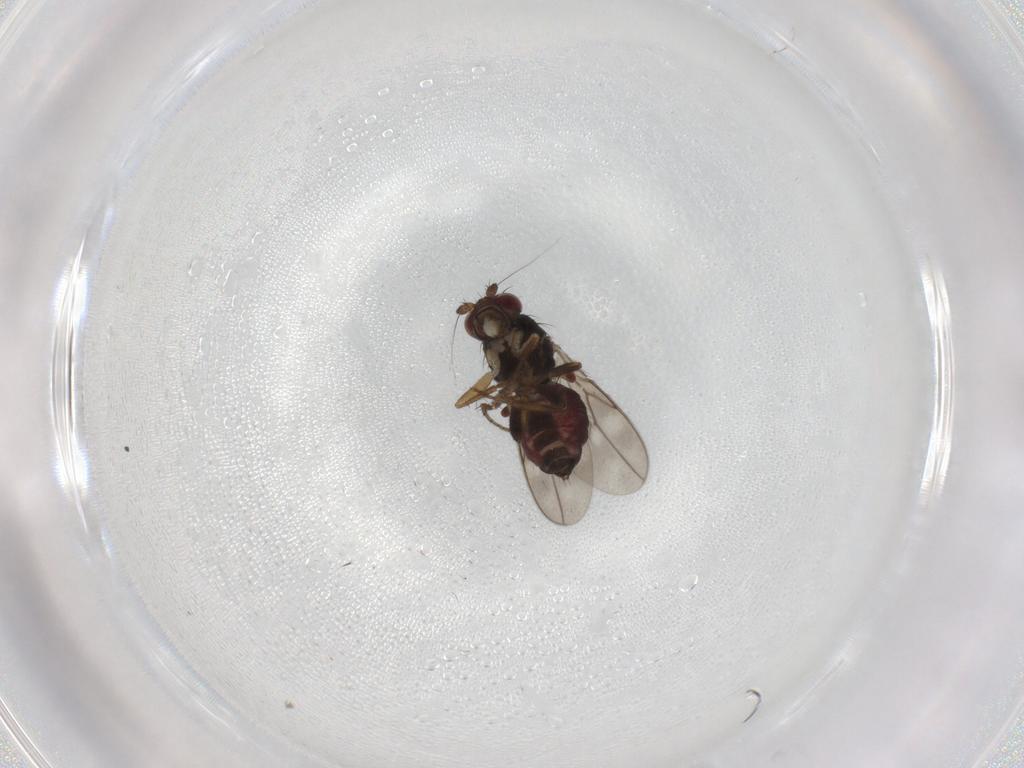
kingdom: Animalia
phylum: Arthropoda
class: Insecta
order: Diptera
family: Sphaeroceridae
